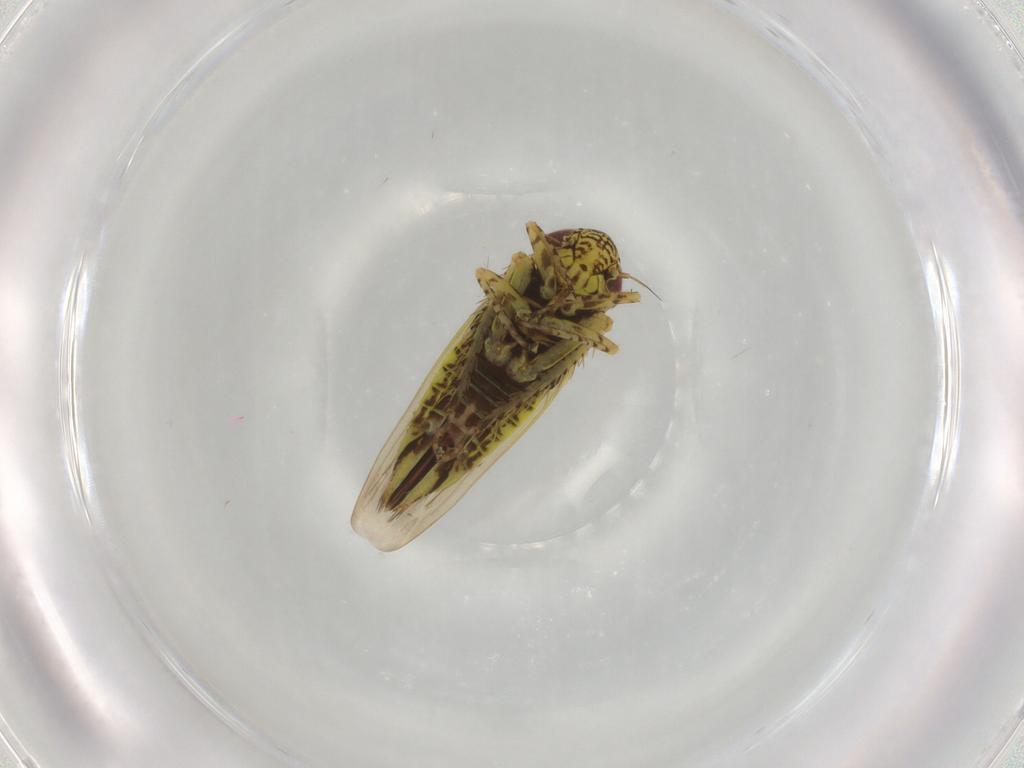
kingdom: Animalia
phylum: Arthropoda
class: Insecta
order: Hemiptera
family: Cicadellidae
